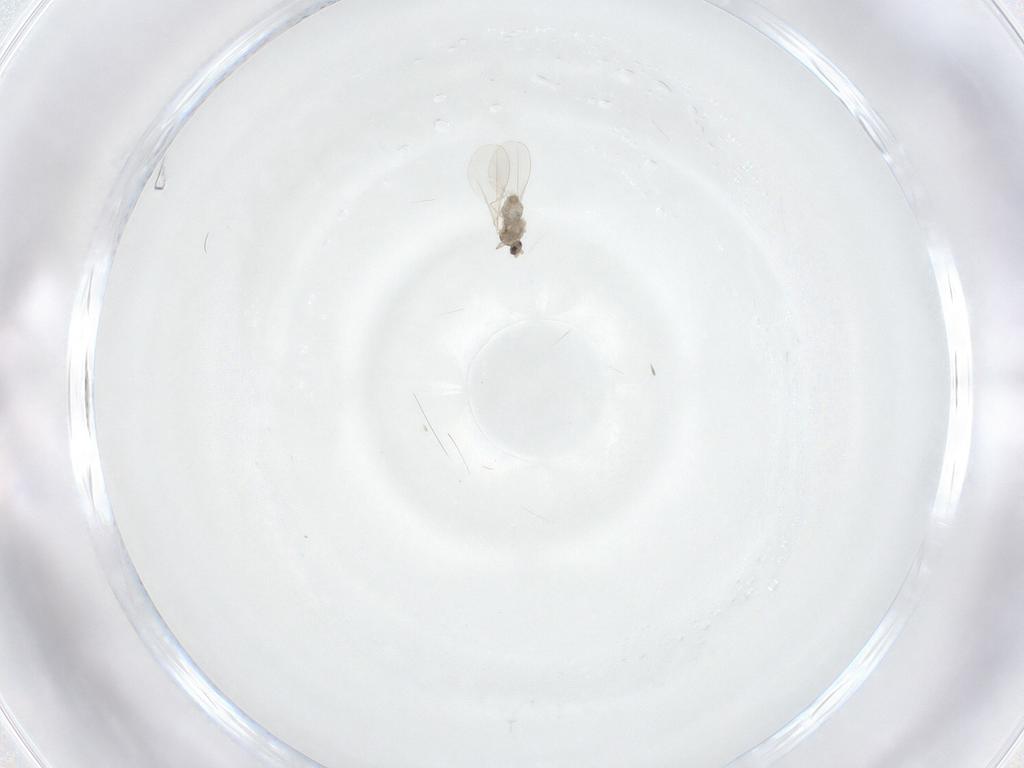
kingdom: Animalia
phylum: Arthropoda
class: Insecta
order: Diptera
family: Cecidomyiidae
